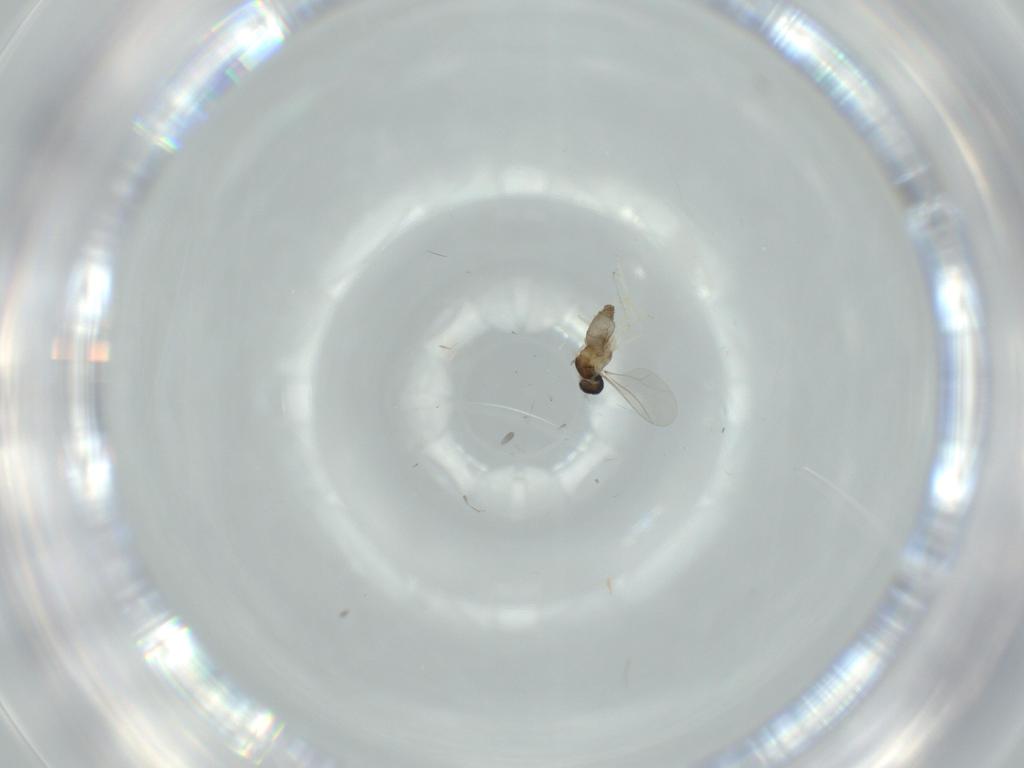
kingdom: Animalia
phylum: Arthropoda
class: Insecta
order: Diptera
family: Cecidomyiidae
